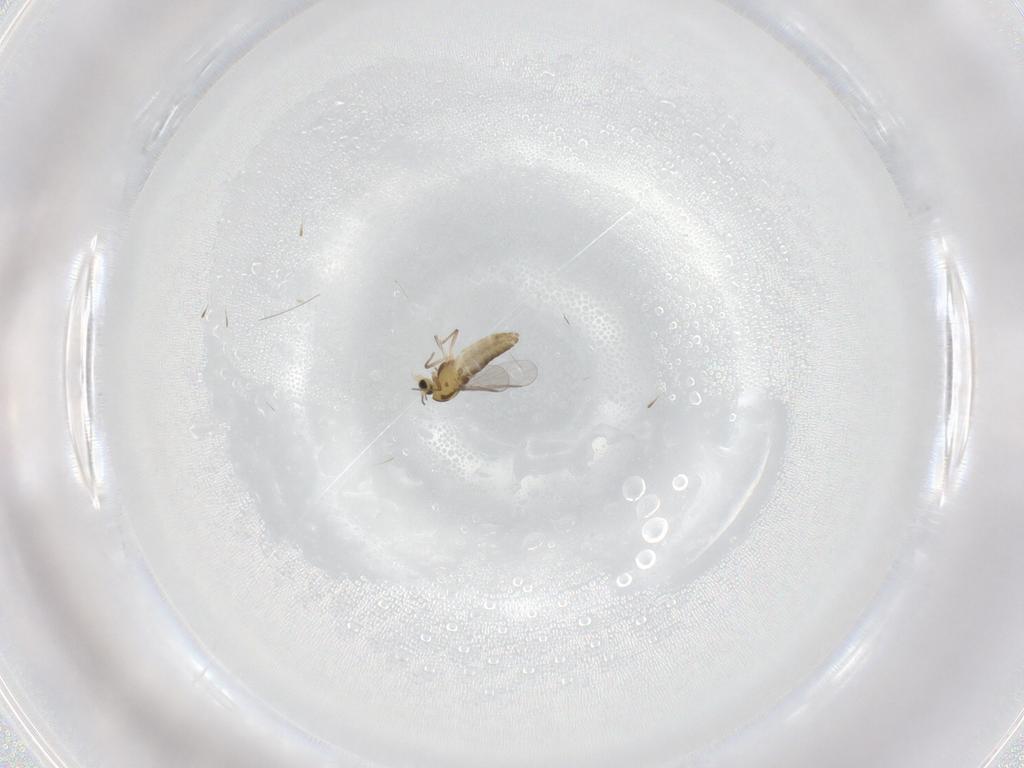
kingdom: Animalia
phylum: Arthropoda
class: Insecta
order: Diptera
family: Chironomidae
